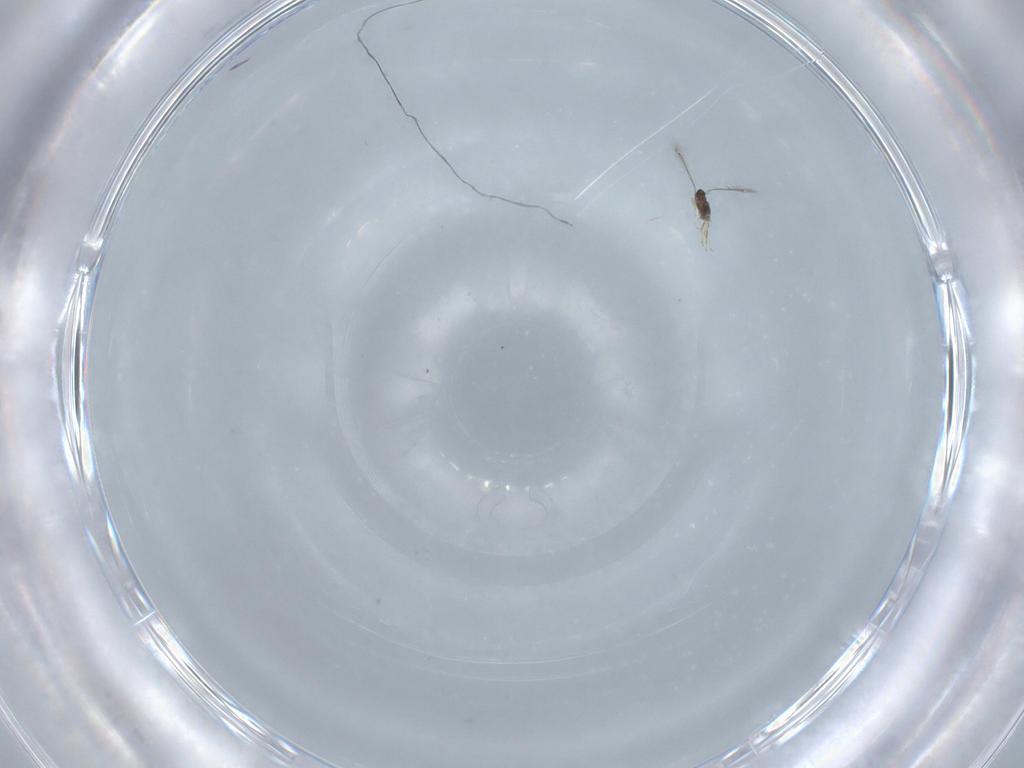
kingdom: Animalia
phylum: Arthropoda
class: Insecta
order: Hymenoptera
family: Mymaridae
